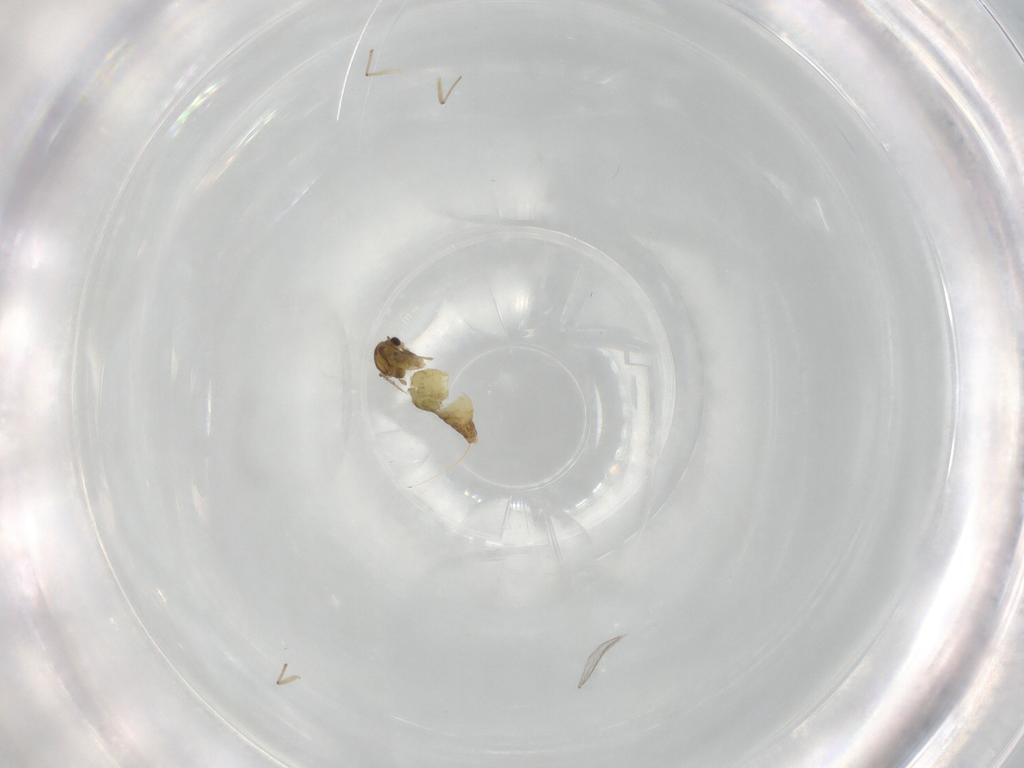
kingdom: Animalia
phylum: Arthropoda
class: Insecta
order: Diptera
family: Chironomidae
